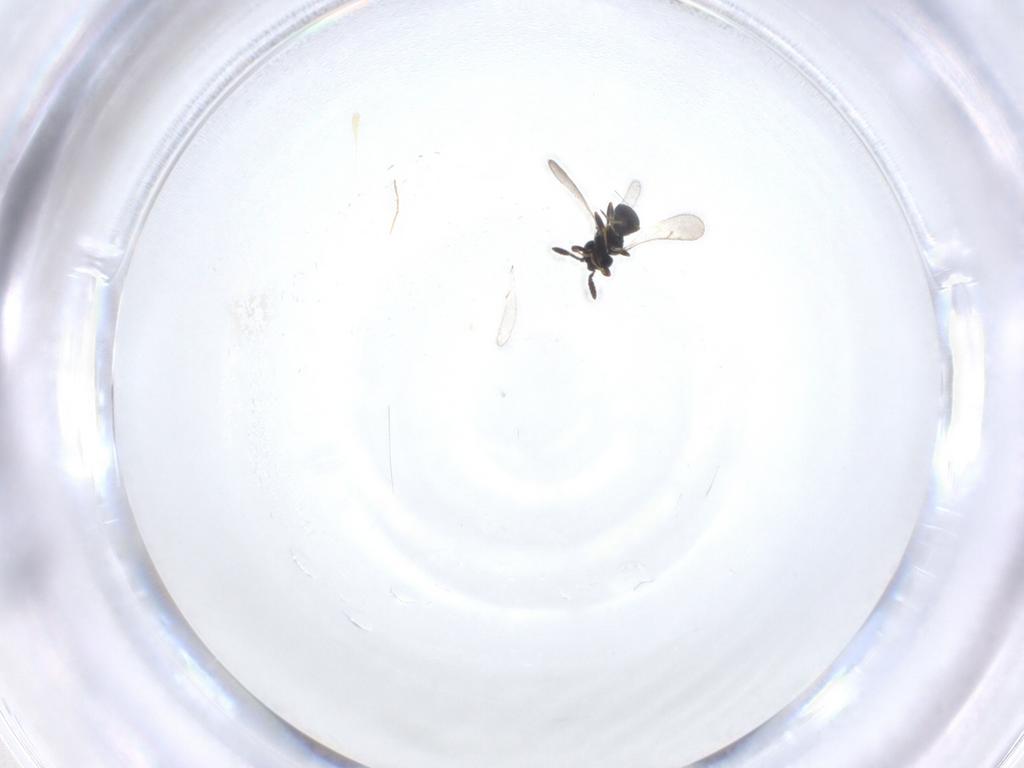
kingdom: Animalia
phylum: Arthropoda
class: Insecta
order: Hymenoptera
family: Scelionidae
